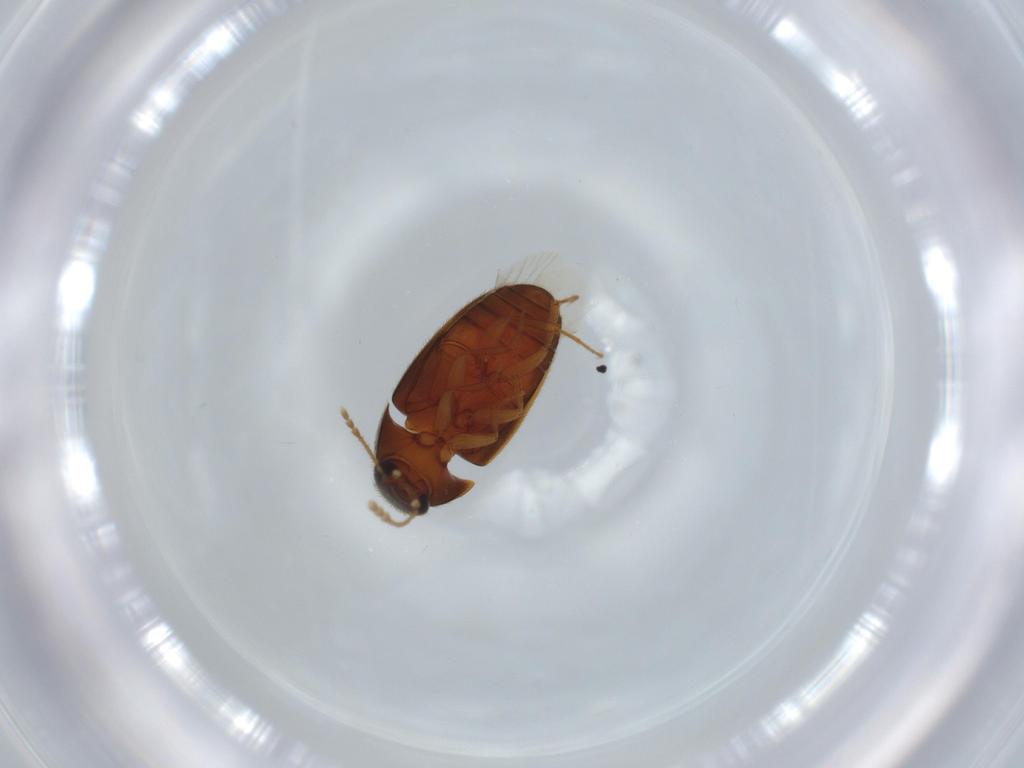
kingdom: Animalia
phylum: Arthropoda
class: Insecta
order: Coleoptera
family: Mycetophagidae
